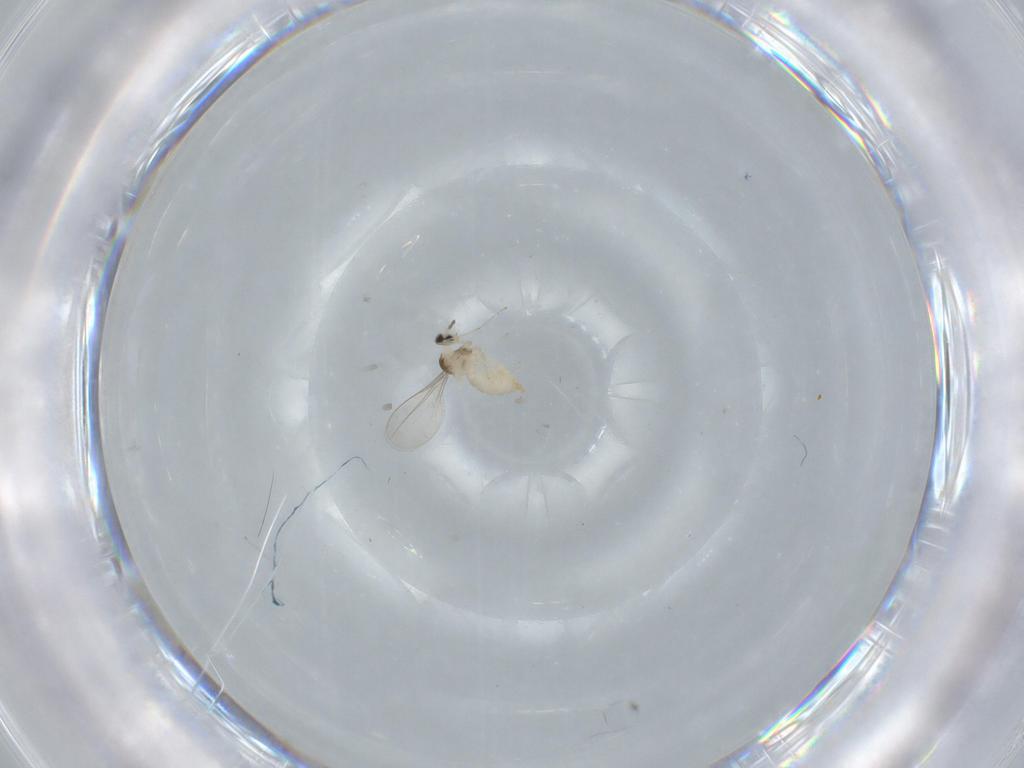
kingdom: Animalia
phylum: Arthropoda
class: Insecta
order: Diptera
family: Cecidomyiidae
